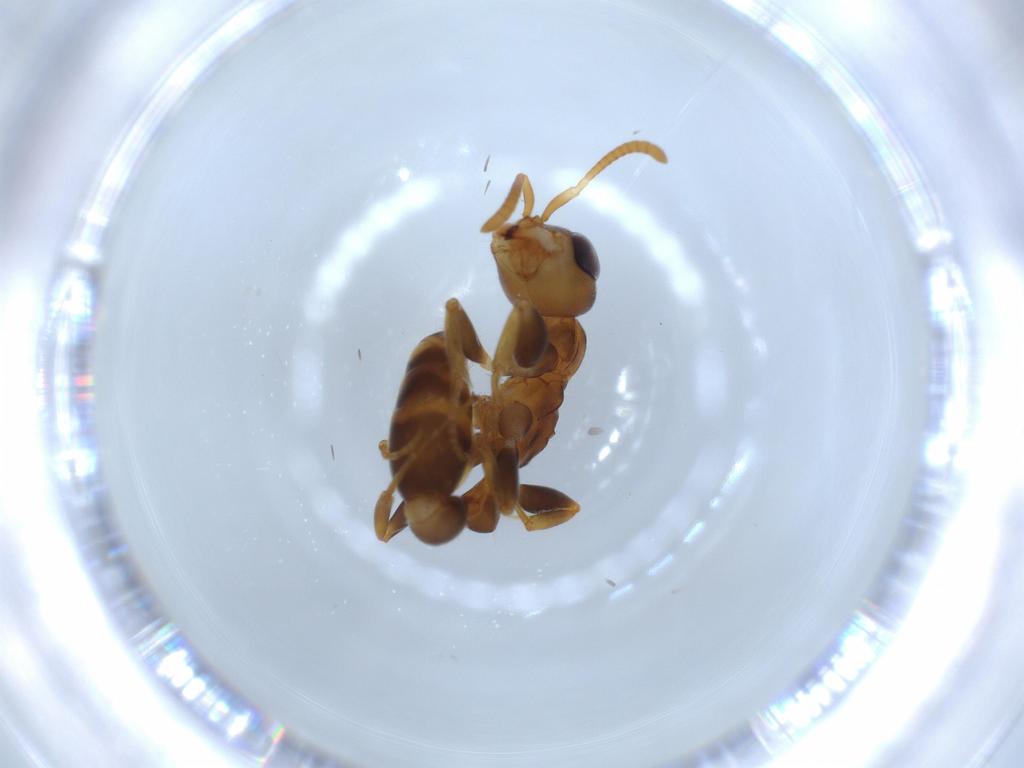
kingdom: Animalia
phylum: Arthropoda
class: Insecta
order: Hymenoptera
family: Formicidae
